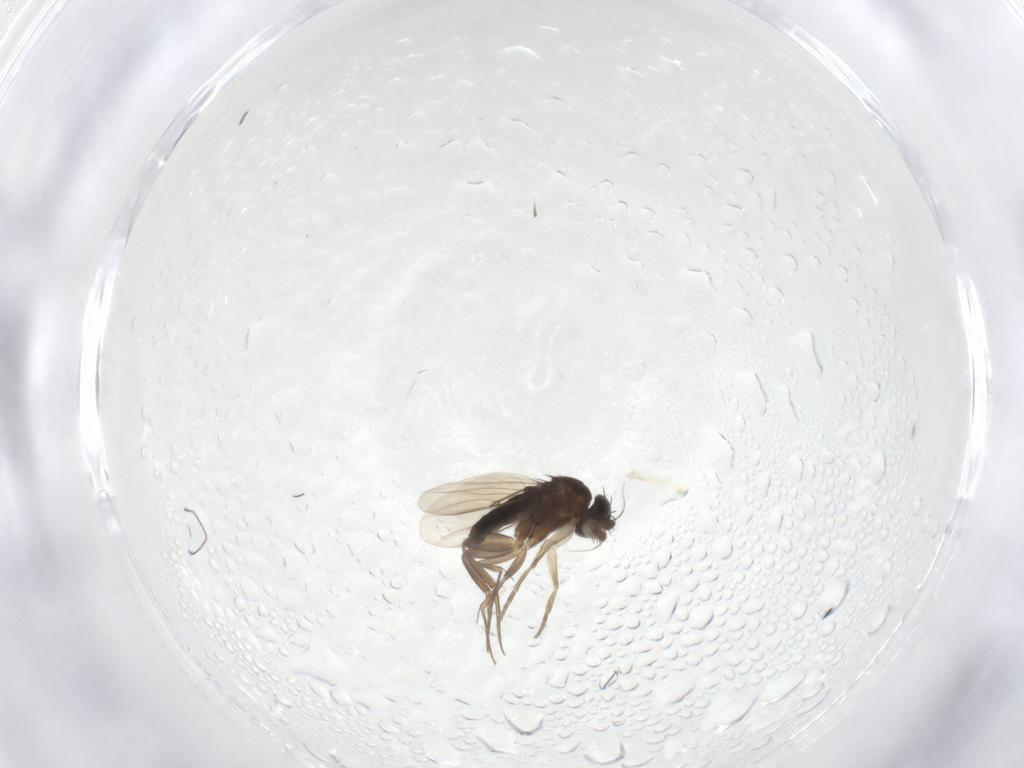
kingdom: Animalia
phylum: Arthropoda
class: Insecta
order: Diptera
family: Phoridae
